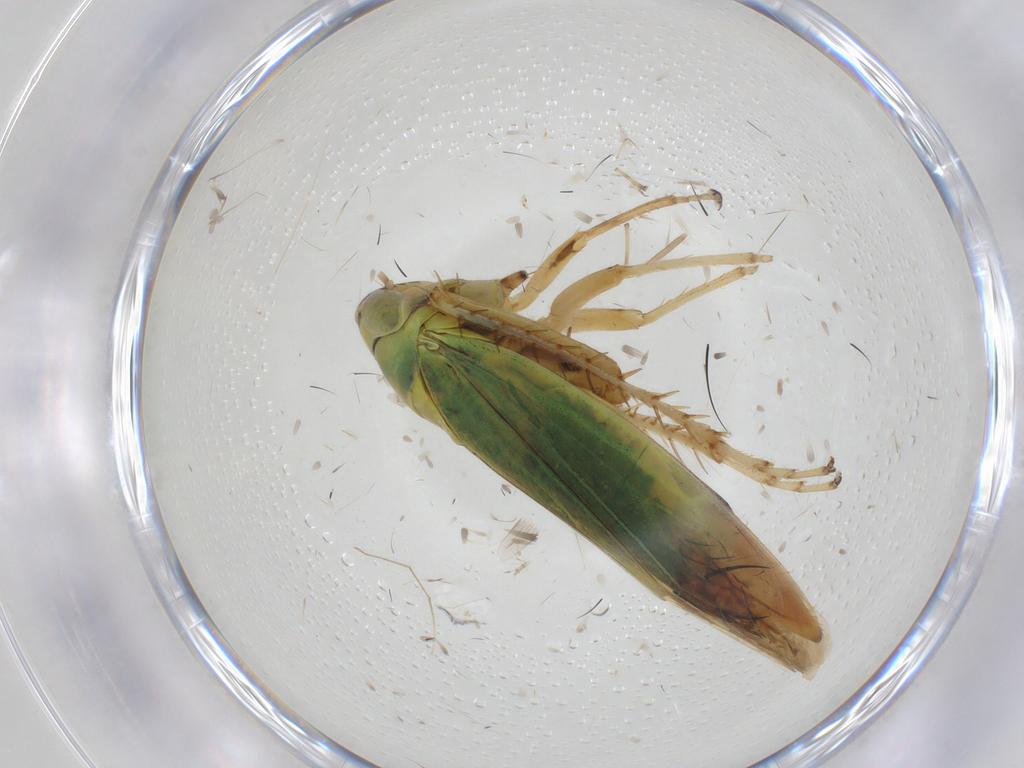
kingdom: Animalia
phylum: Arthropoda
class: Insecta
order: Hemiptera
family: Cicadellidae
